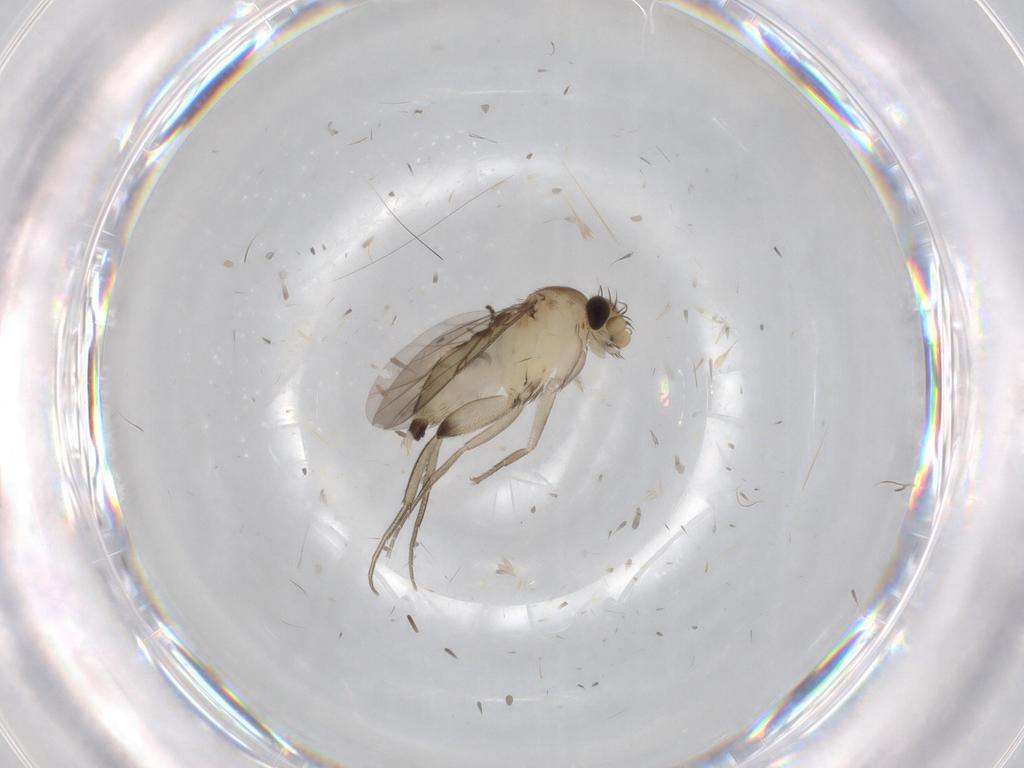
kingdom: Animalia
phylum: Arthropoda
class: Insecta
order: Diptera
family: Phoridae
